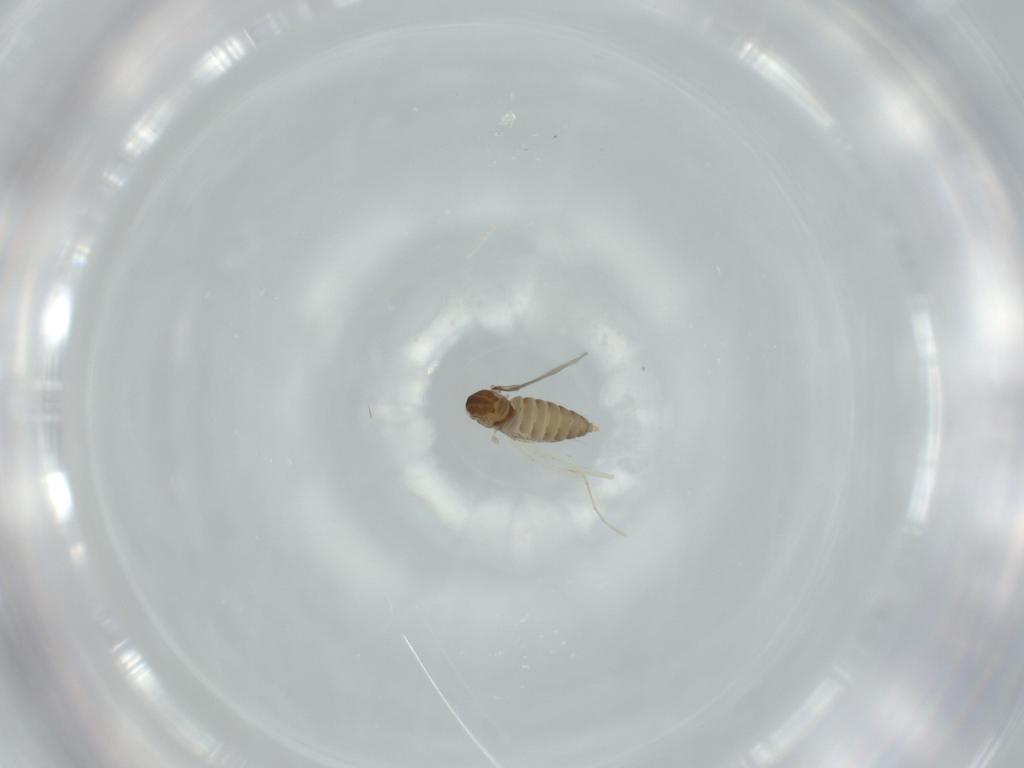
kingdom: Animalia
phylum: Arthropoda
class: Insecta
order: Diptera
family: Cecidomyiidae
